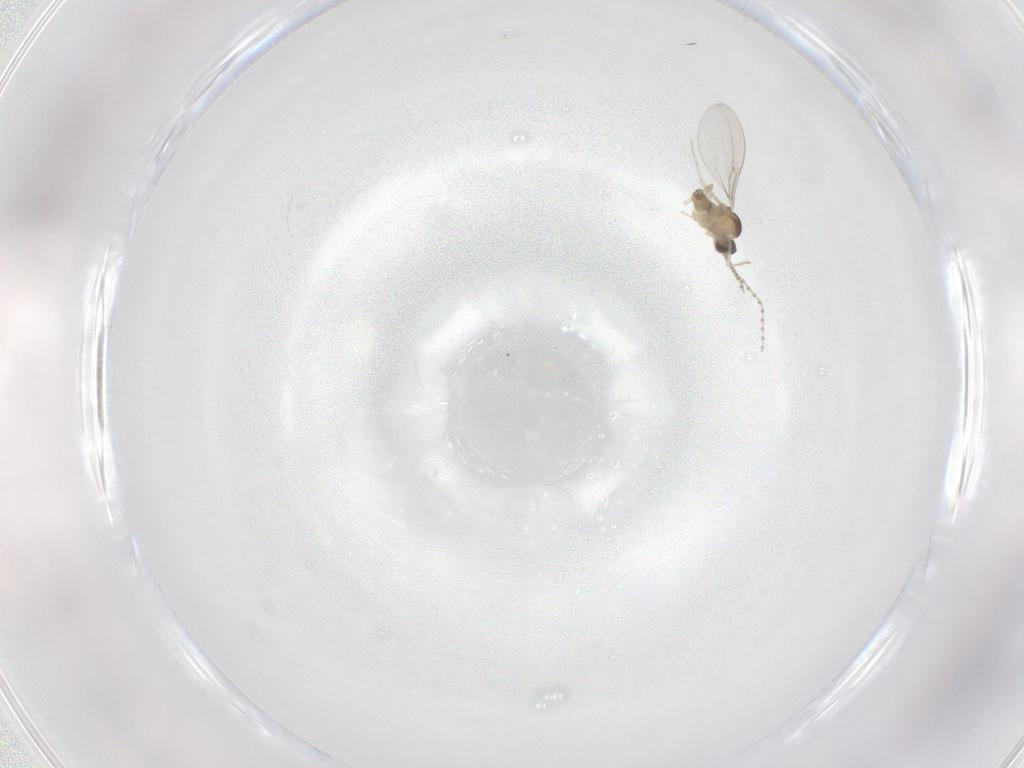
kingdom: Animalia
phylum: Arthropoda
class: Insecta
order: Diptera
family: Cecidomyiidae
